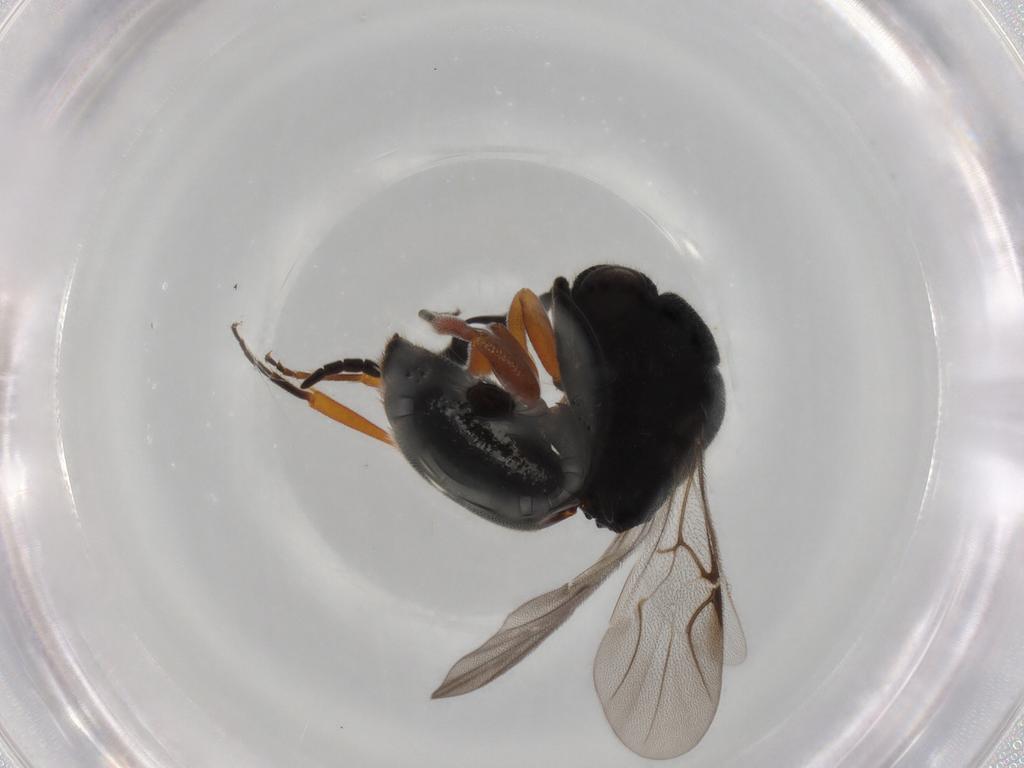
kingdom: Animalia
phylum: Arthropoda
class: Insecta
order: Hymenoptera
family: Chrysididae
